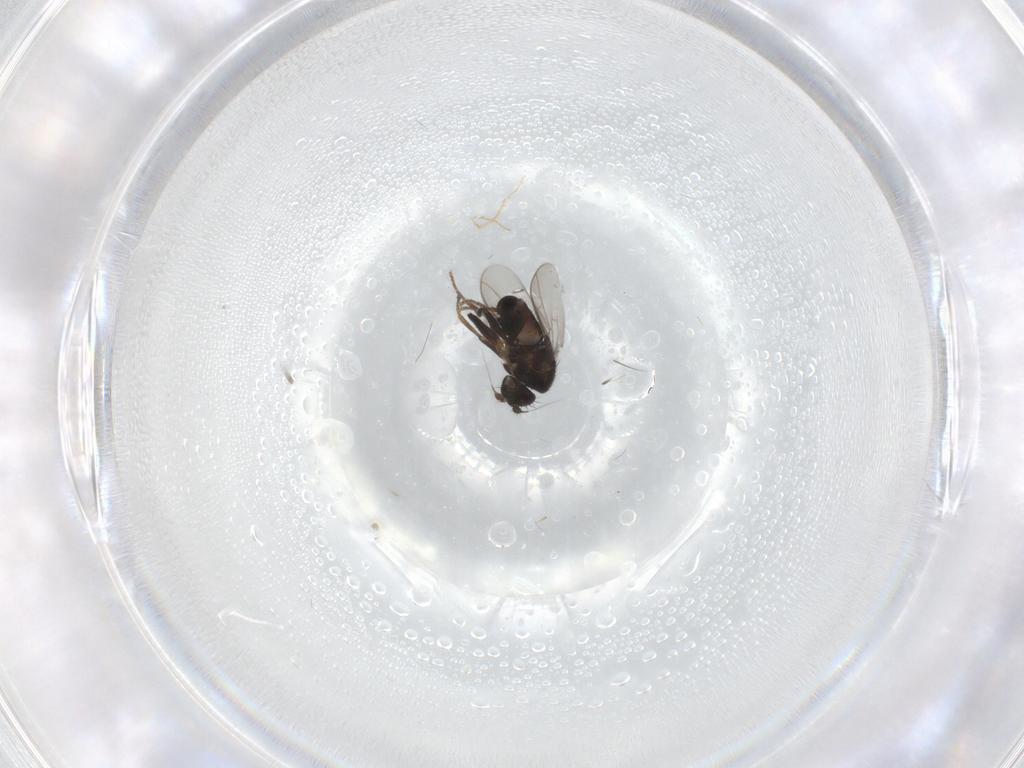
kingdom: Animalia
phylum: Arthropoda
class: Insecta
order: Diptera
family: Sphaeroceridae
